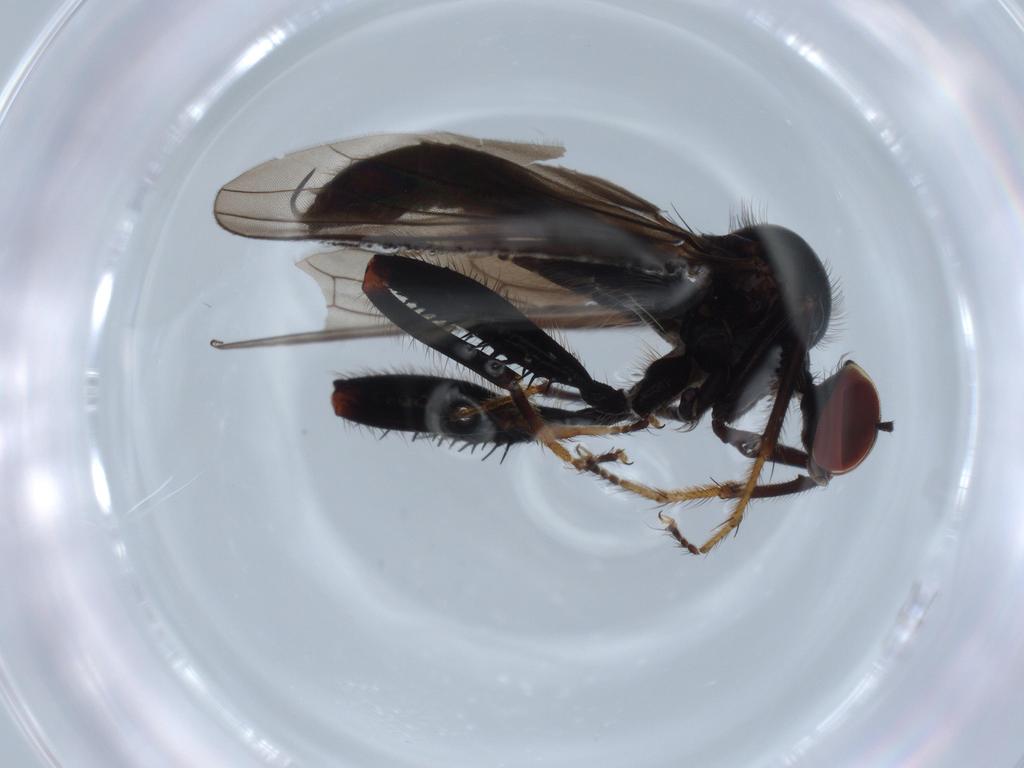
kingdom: Animalia
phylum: Arthropoda
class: Insecta
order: Diptera
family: Hybotidae
